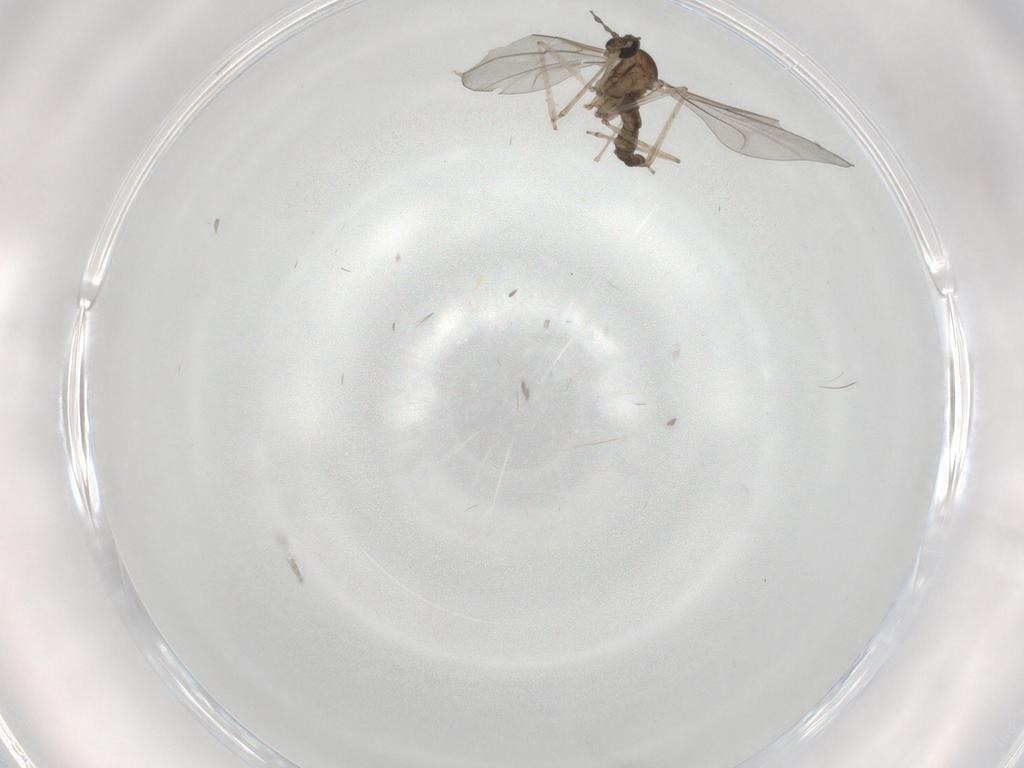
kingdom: Animalia
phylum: Arthropoda
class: Insecta
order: Diptera
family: Cecidomyiidae
